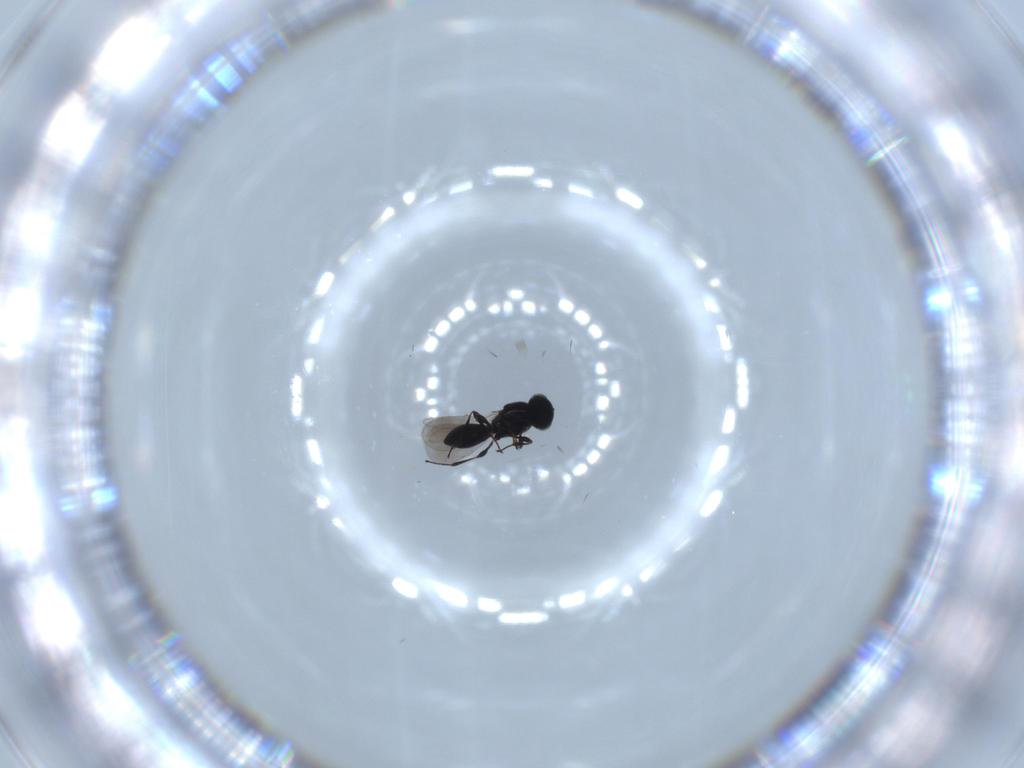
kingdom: Animalia
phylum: Arthropoda
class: Insecta
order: Hymenoptera
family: Platygastridae
